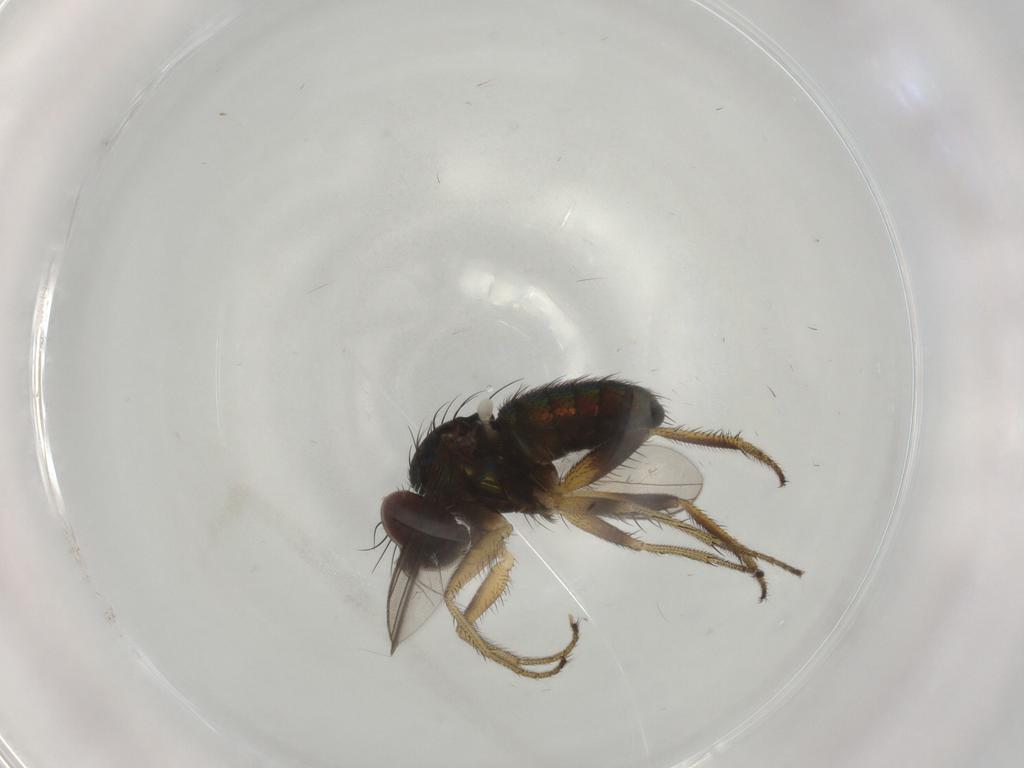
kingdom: Animalia
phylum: Arthropoda
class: Insecta
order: Diptera
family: Dolichopodidae
